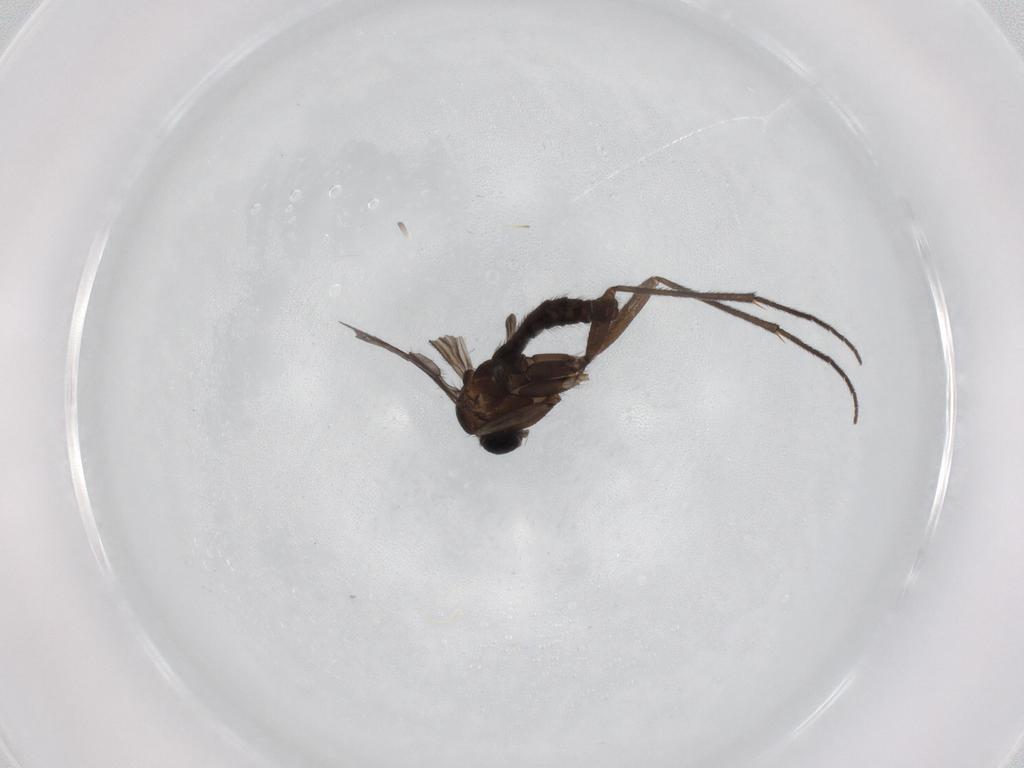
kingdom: Animalia
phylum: Arthropoda
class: Insecta
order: Diptera
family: Sciaridae
